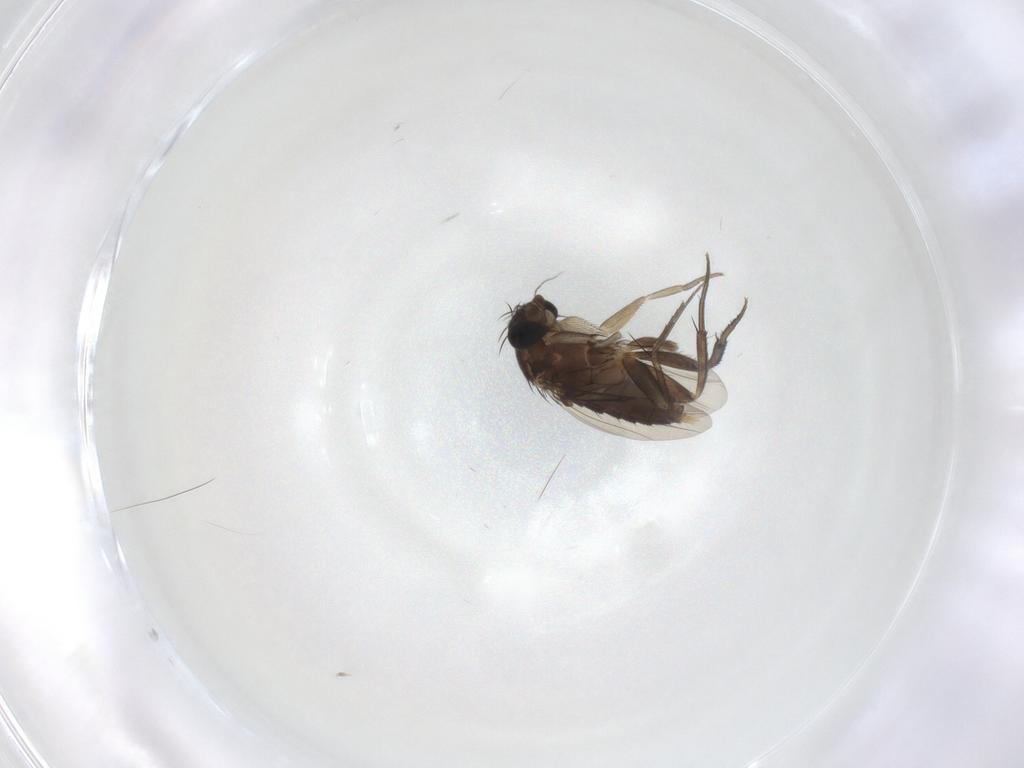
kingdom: Animalia
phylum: Arthropoda
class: Insecta
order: Diptera
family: Phoridae
